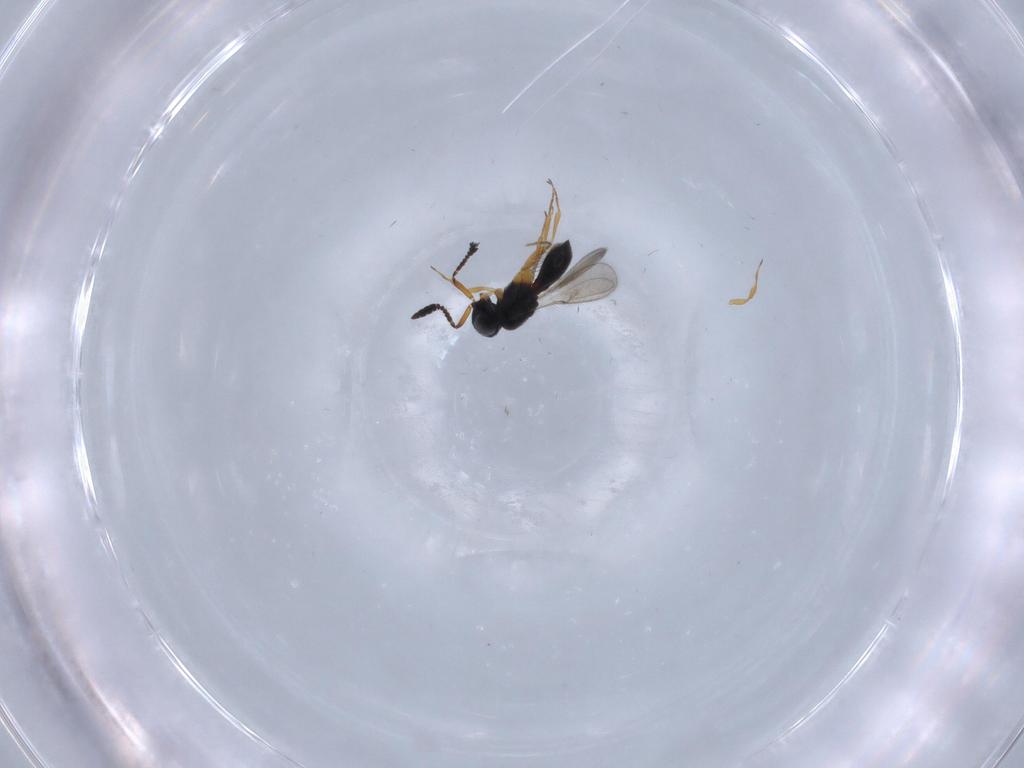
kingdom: Animalia
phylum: Arthropoda
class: Insecta
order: Hymenoptera
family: Scelionidae
